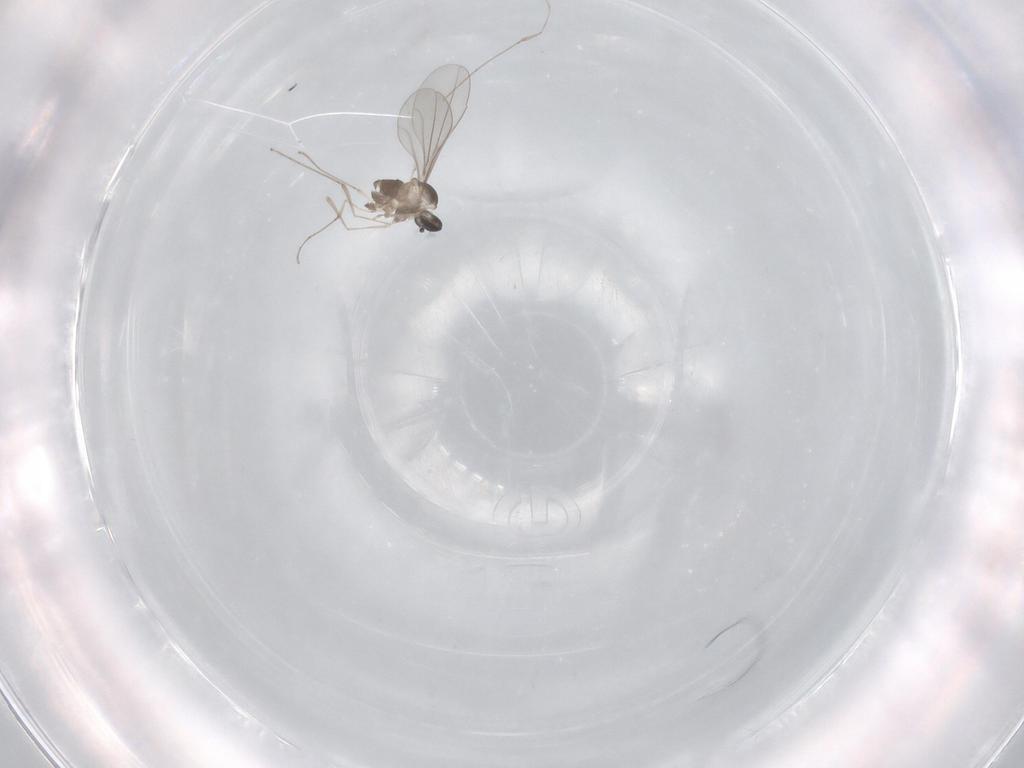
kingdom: Animalia
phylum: Arthropoda
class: Insecta
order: Diptera
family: Cecidomyiidae
